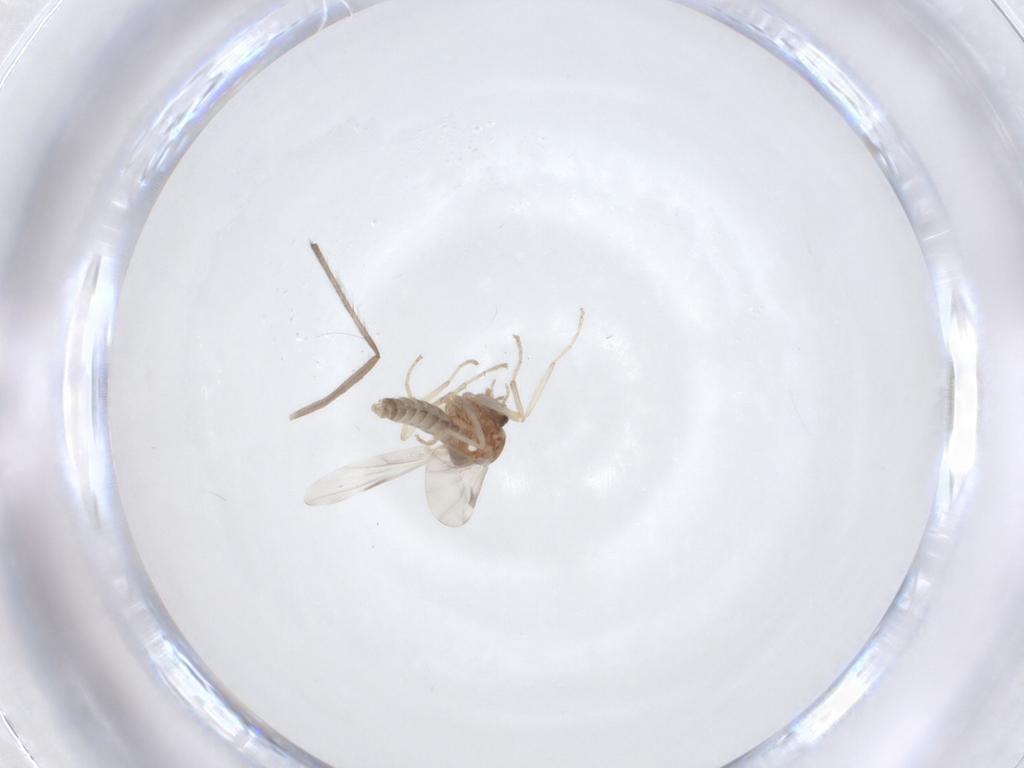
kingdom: Animalia
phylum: Arthropoda
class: Insecta
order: Diptera
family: Ceratopogonidae
